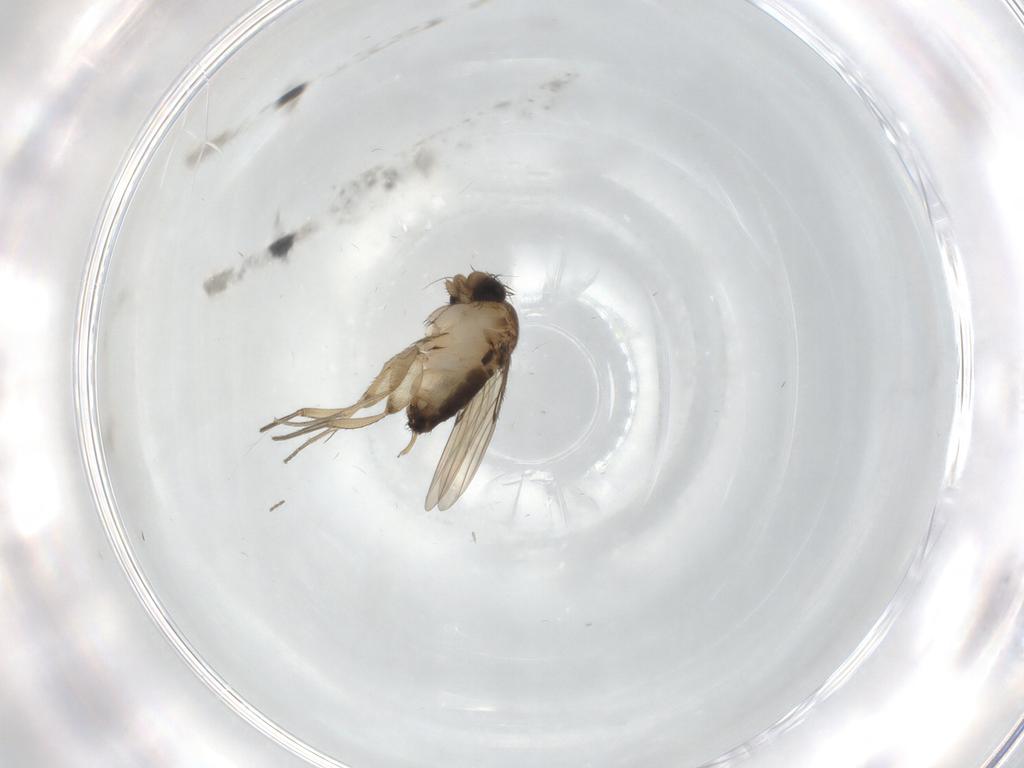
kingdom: Animalia
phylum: Arthropoda
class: Insecta
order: Diptera
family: Cecidomyiidae
